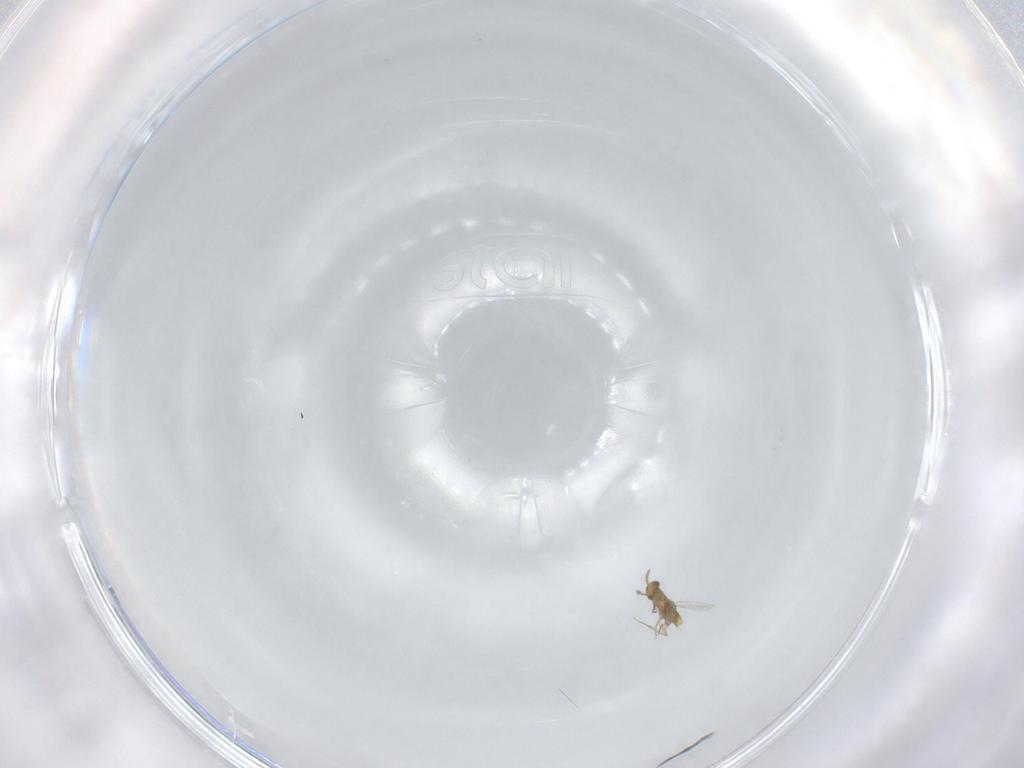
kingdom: Animalia
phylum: Arthropoda
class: Insecta
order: Hymenoptera
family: Aphelinidae
